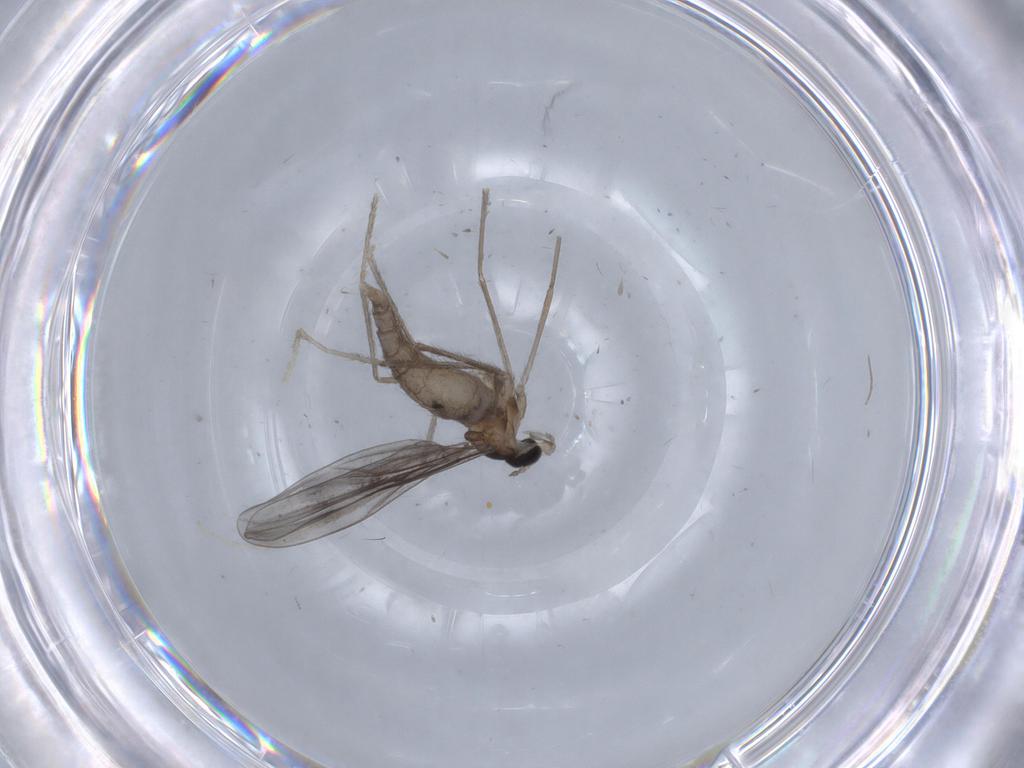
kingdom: Animalia
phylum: Arthropoda
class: Insecta
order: Diptera
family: Cecidomyiidae
